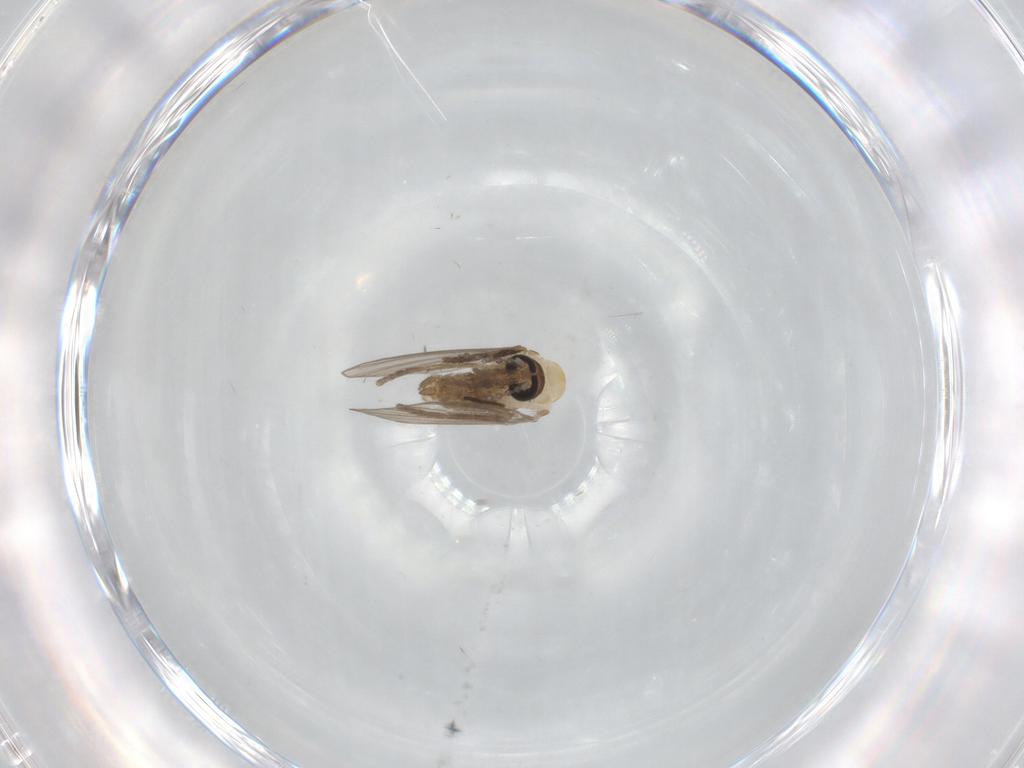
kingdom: Animalia
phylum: Arthropoda
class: Insecta
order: Diptera
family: Psychodidae
